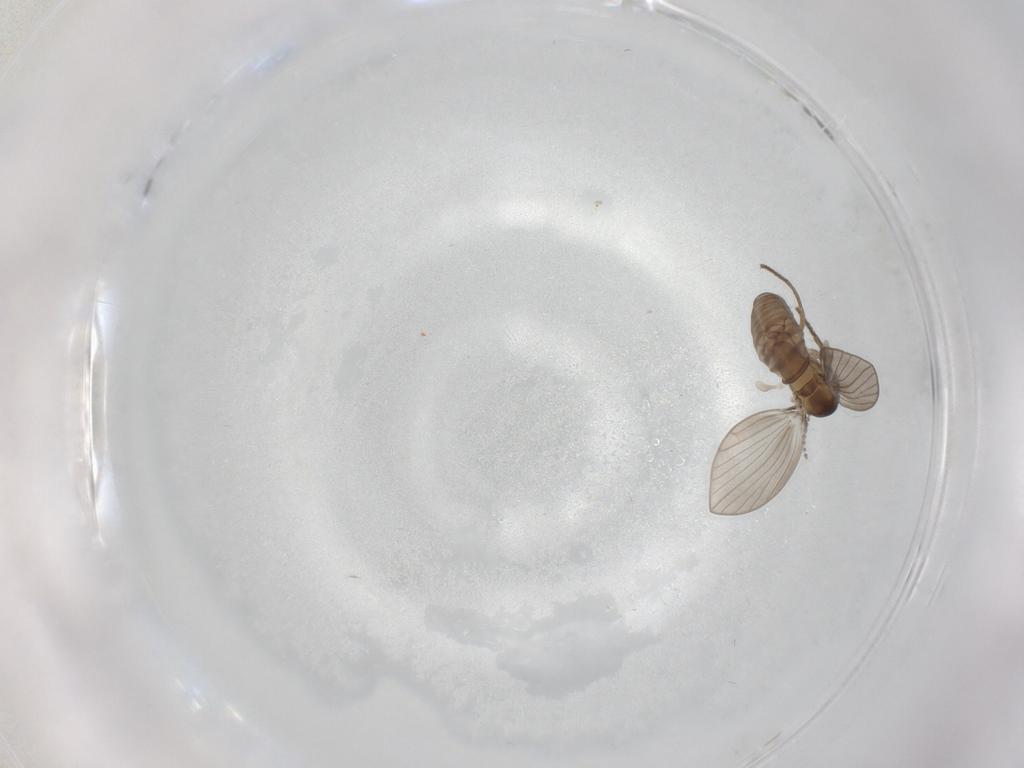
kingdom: Animalia
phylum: Arthropoda
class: Insecta
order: Diptera
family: Psychodidae
